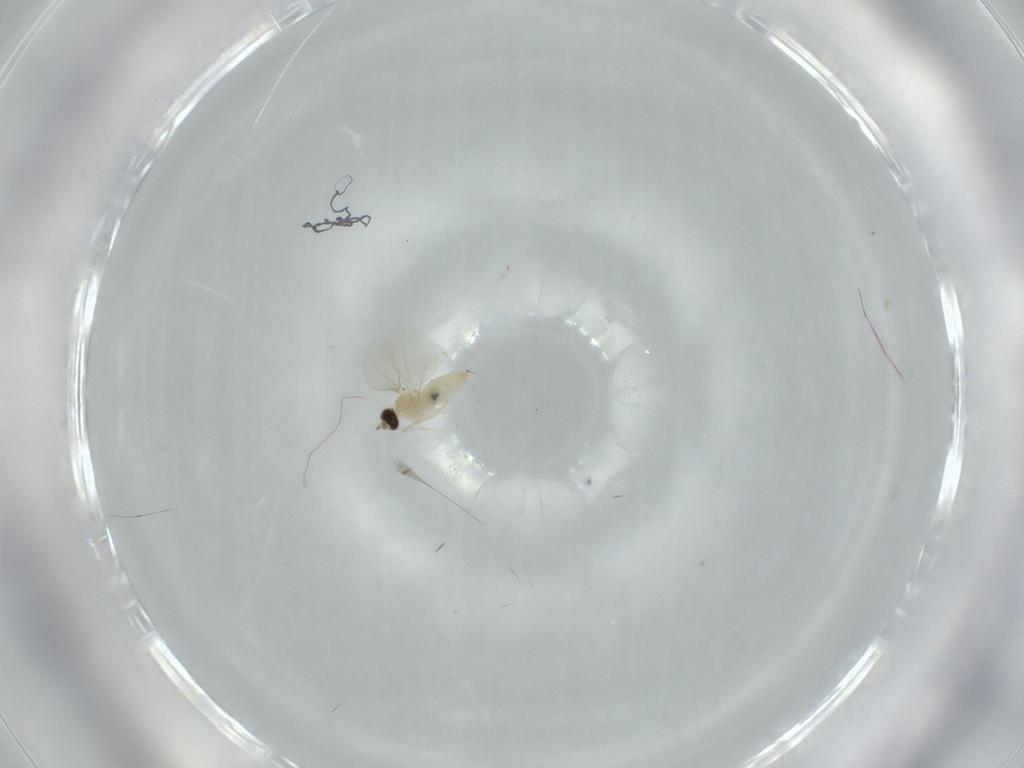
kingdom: Animalia
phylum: Arthropoda
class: Insecta
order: Diptera
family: Cecidomyiidae
